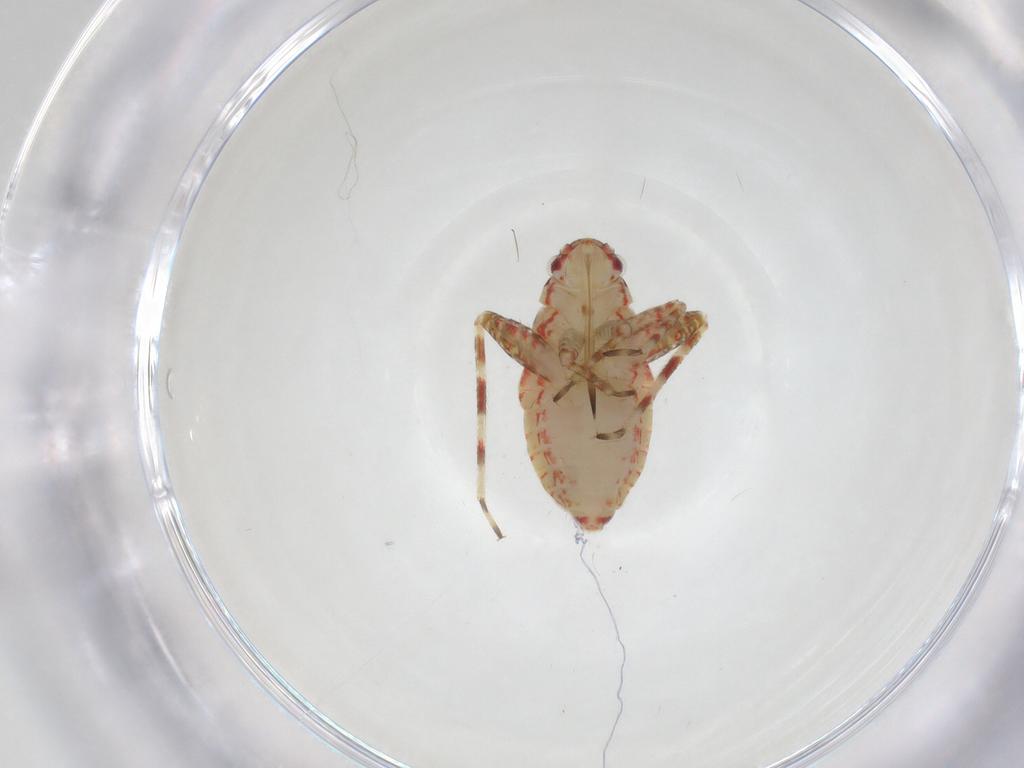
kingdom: Animalia
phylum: Arthropoda
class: Insecta
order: Hemiptera
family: Miridae
